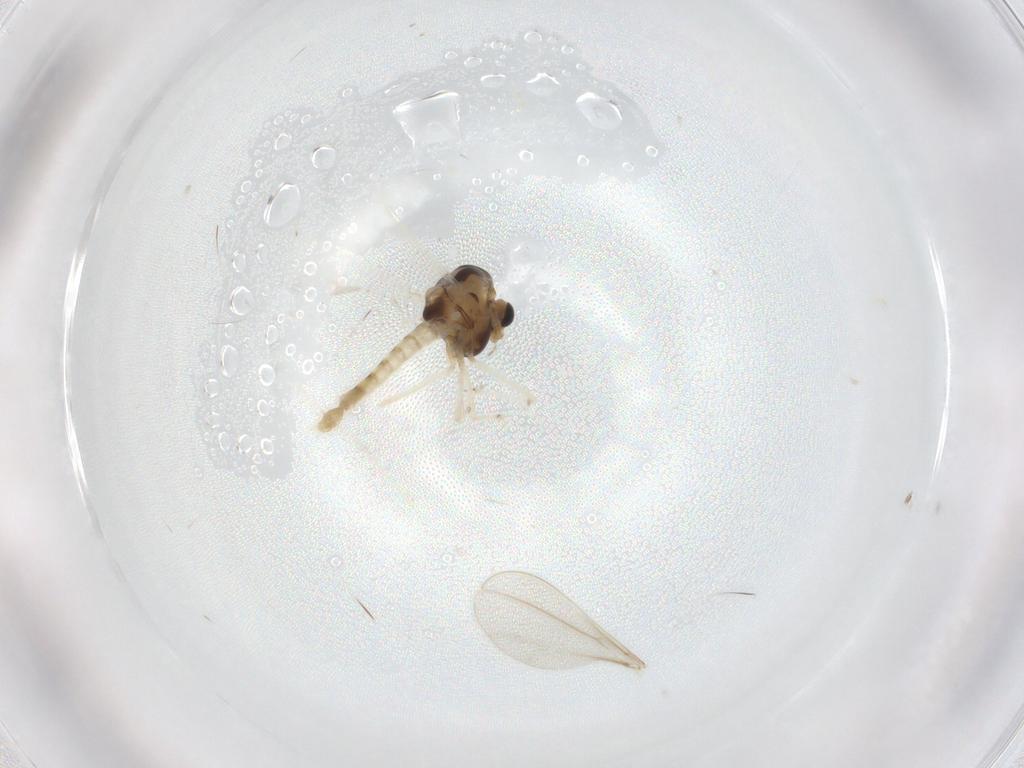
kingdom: Animalia
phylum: Arthropoda
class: Insecta
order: Diptera
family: Chironomidae
